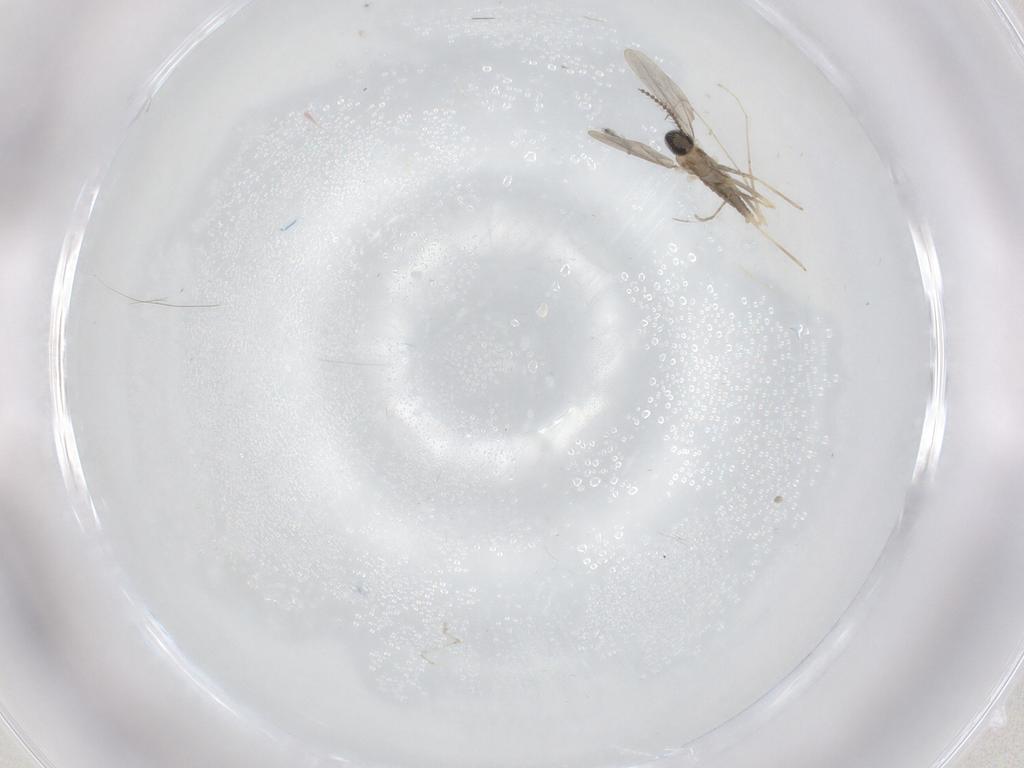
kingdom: Animalia
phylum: Arthropoda
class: Insecta
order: Diptera
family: Cecidomyiidae
